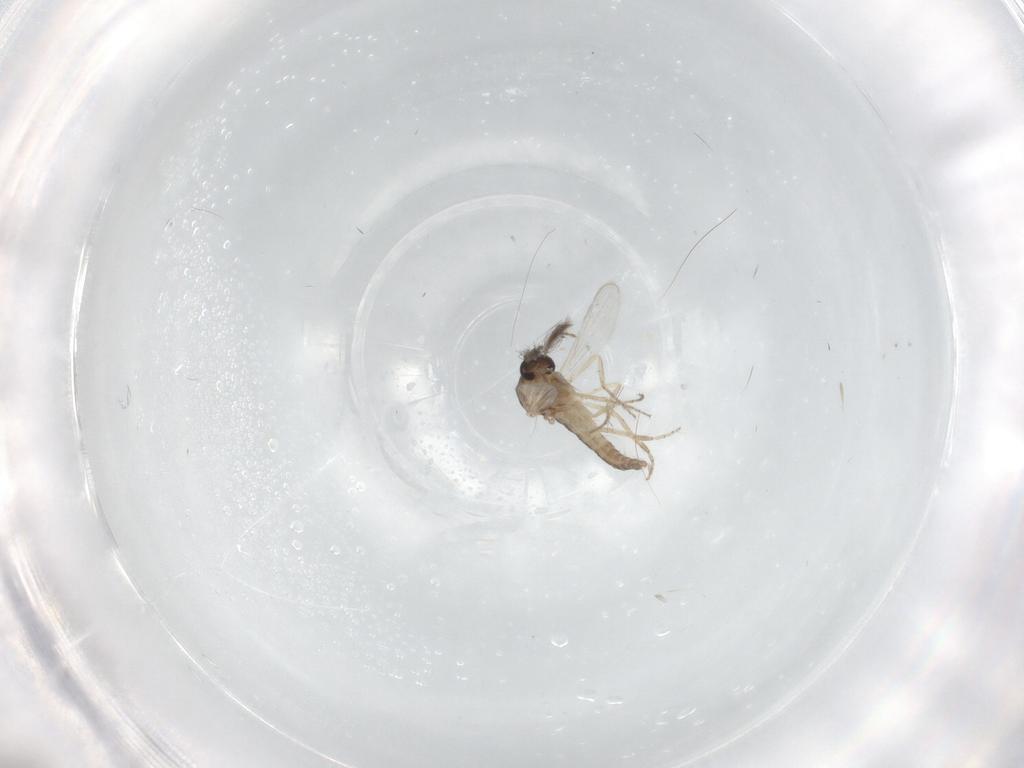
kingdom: Animalia
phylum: Arthropoda
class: Insecta
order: Diptera
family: Ceratopogonidae
